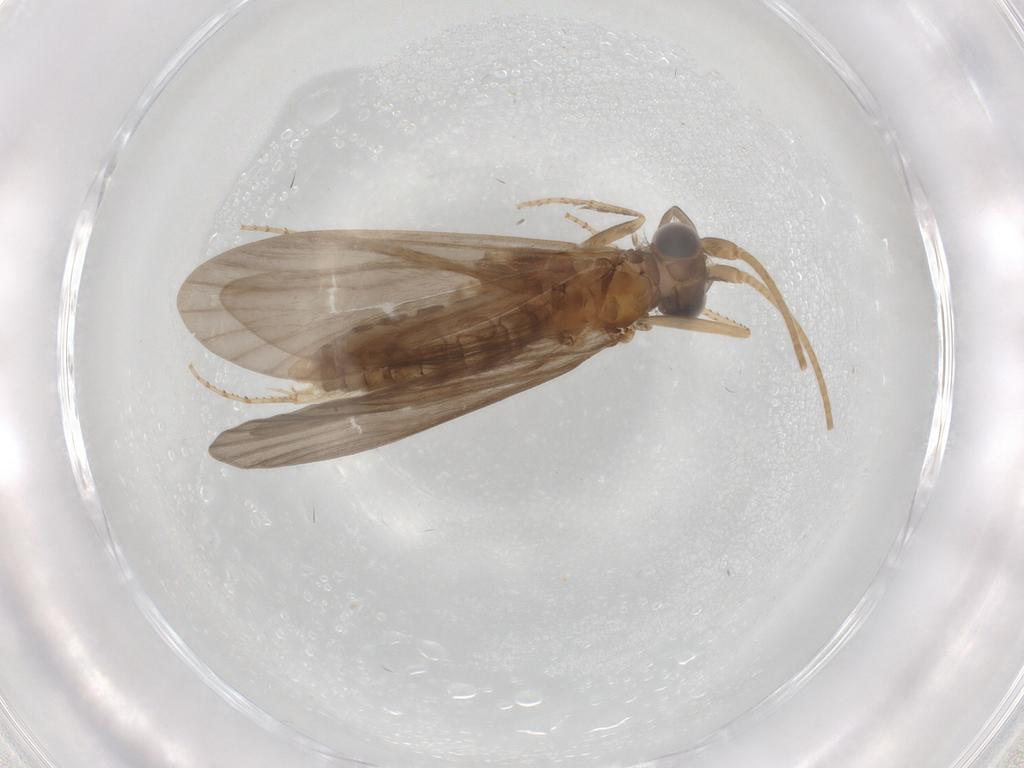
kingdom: Animalia
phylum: Arthropoda
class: Insecta
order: Trichoptera
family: Helicopsychidae
